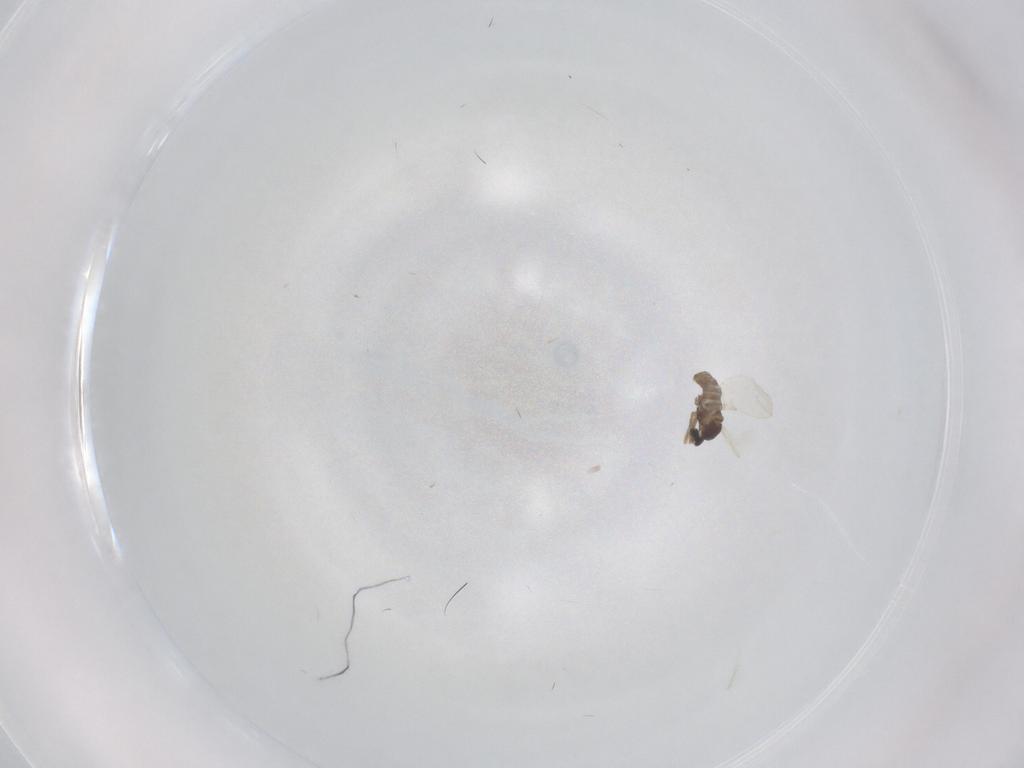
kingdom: Animalia
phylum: Arthropoda
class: Insecta
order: Diptera
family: Cecidomyiidae
